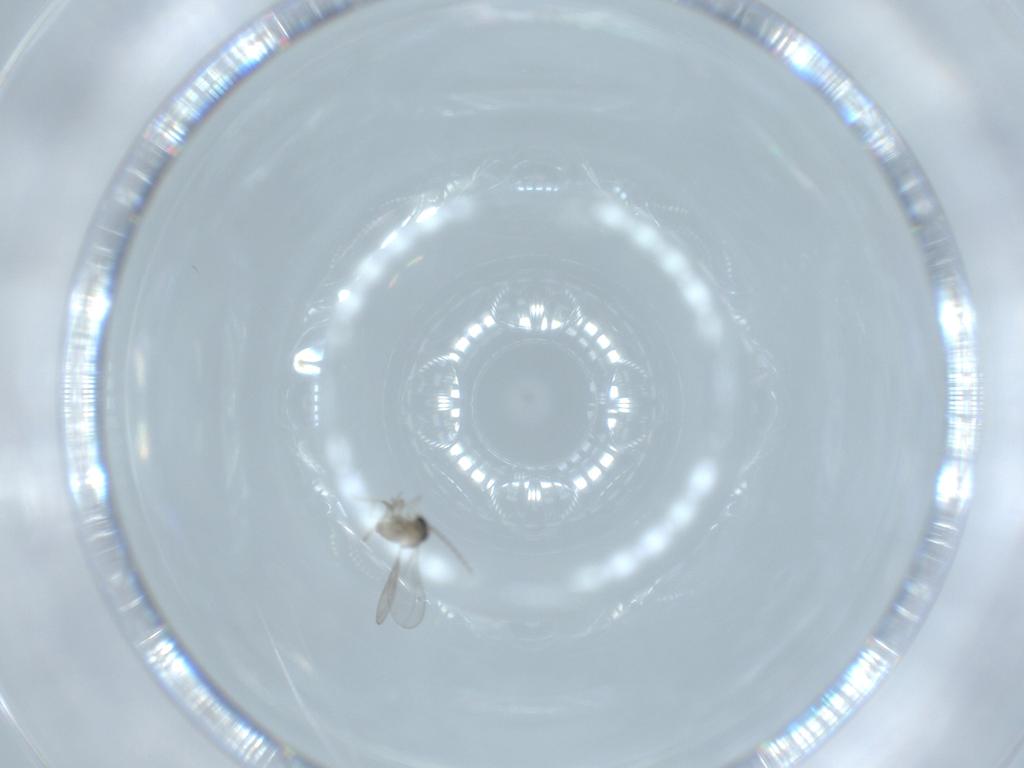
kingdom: Animalia
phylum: Arthropoda
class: Insecta
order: Diptera
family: Cecidomyiidae
